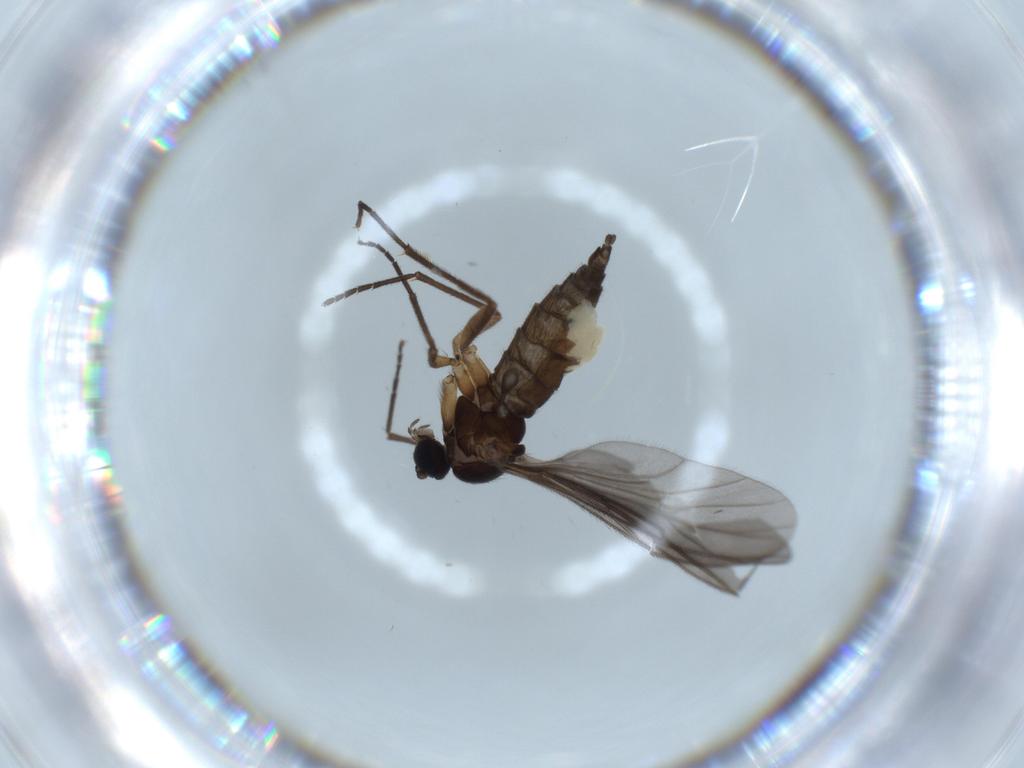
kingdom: Animalia
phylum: Arthropoda
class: Insecta
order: Diptera
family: Sciaridae
